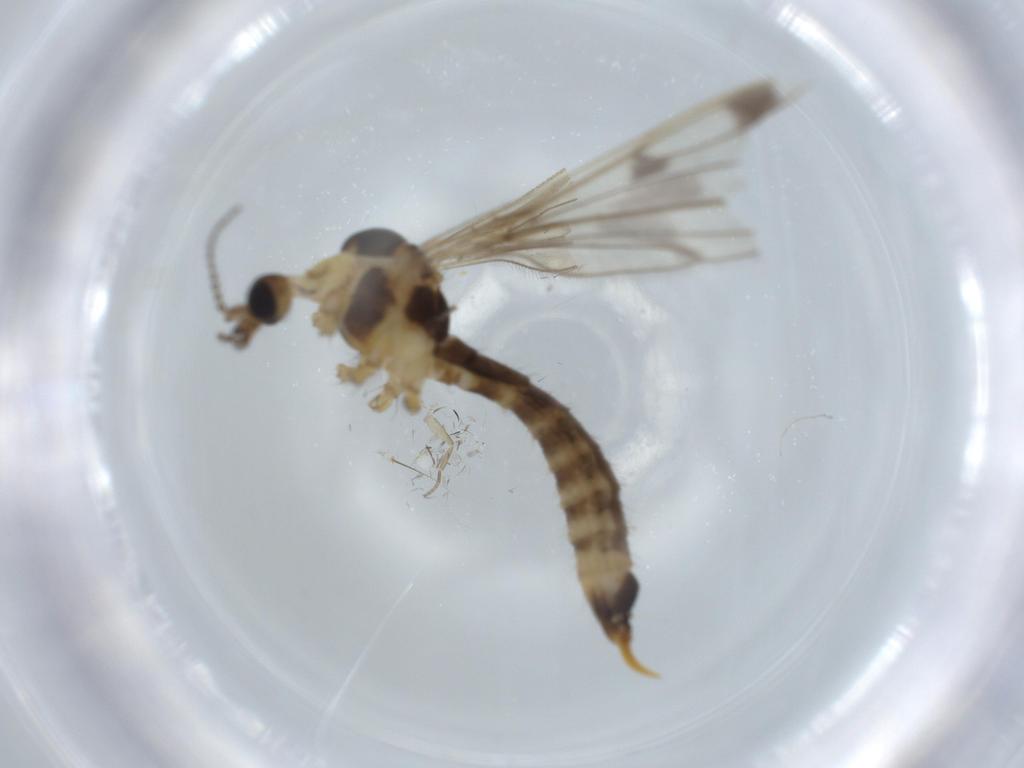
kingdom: Animalia
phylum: Arthropoda
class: Insecta
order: Diptera
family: Limoniidae
